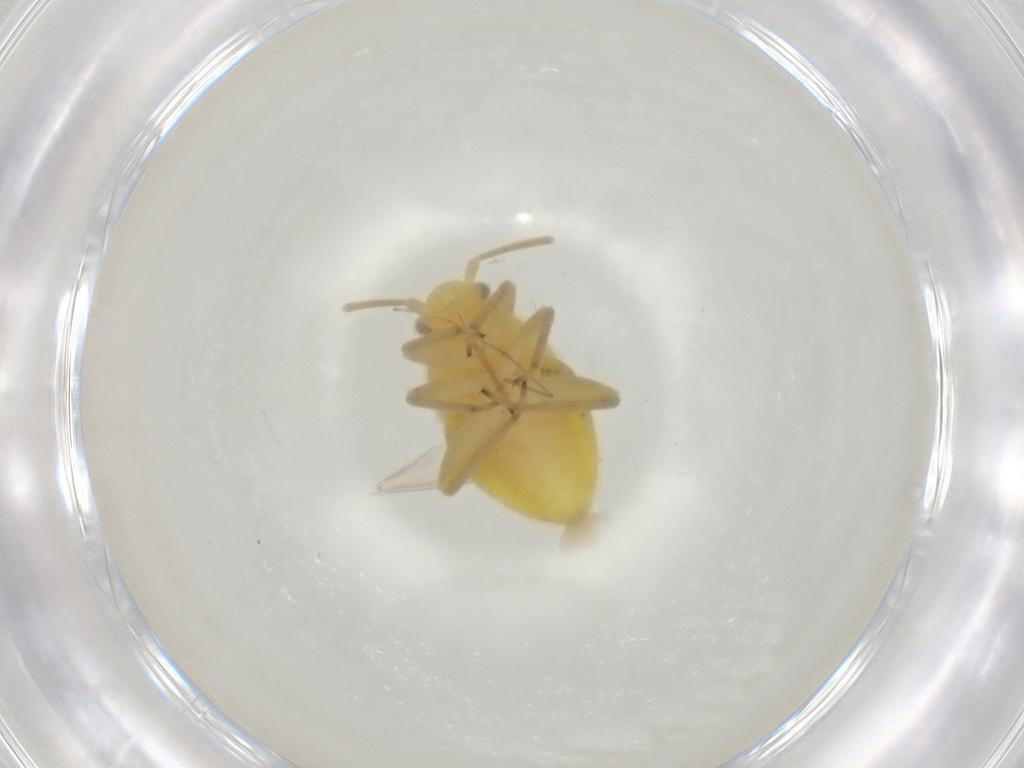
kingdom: Animalia
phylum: Arthropoda
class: Insecta
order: Hemiptera
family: Miridae
